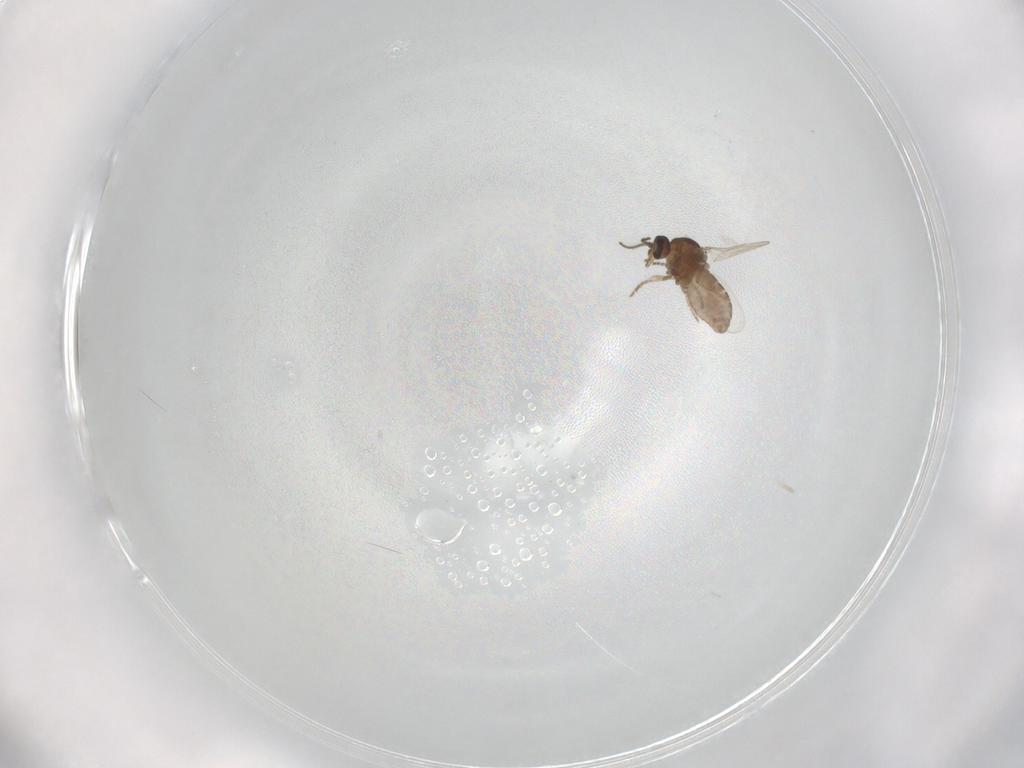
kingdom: Animalia
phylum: Arthropoda
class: Insecta
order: Diptera
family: Ceratopogonidae
